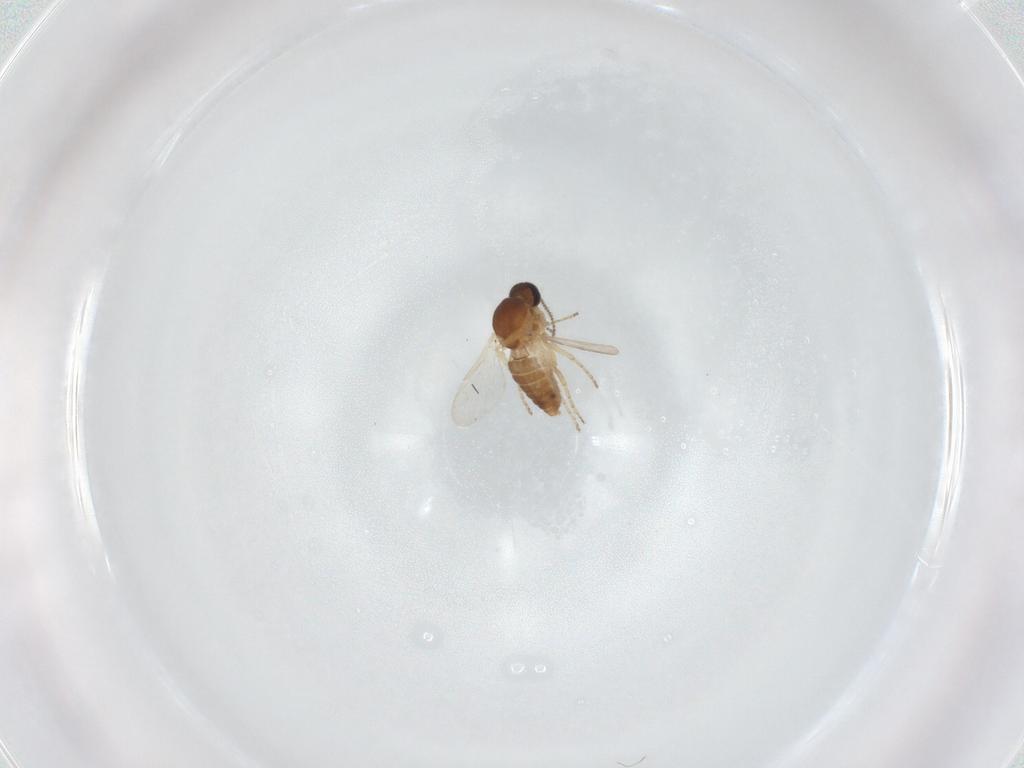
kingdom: Animalia
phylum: Arthropoda
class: Insecta
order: Diptera
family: Ceratopogonidae
